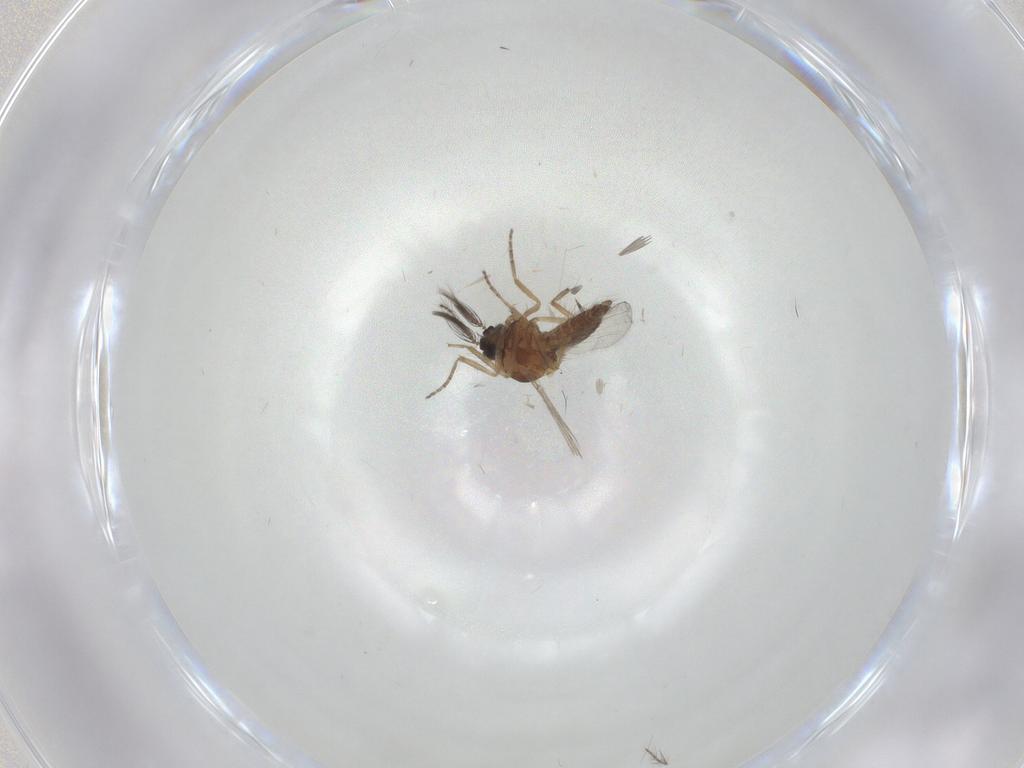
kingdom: Animalia
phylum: Arthropoda
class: Insecta
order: Diptera
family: Ceratopogonidae
